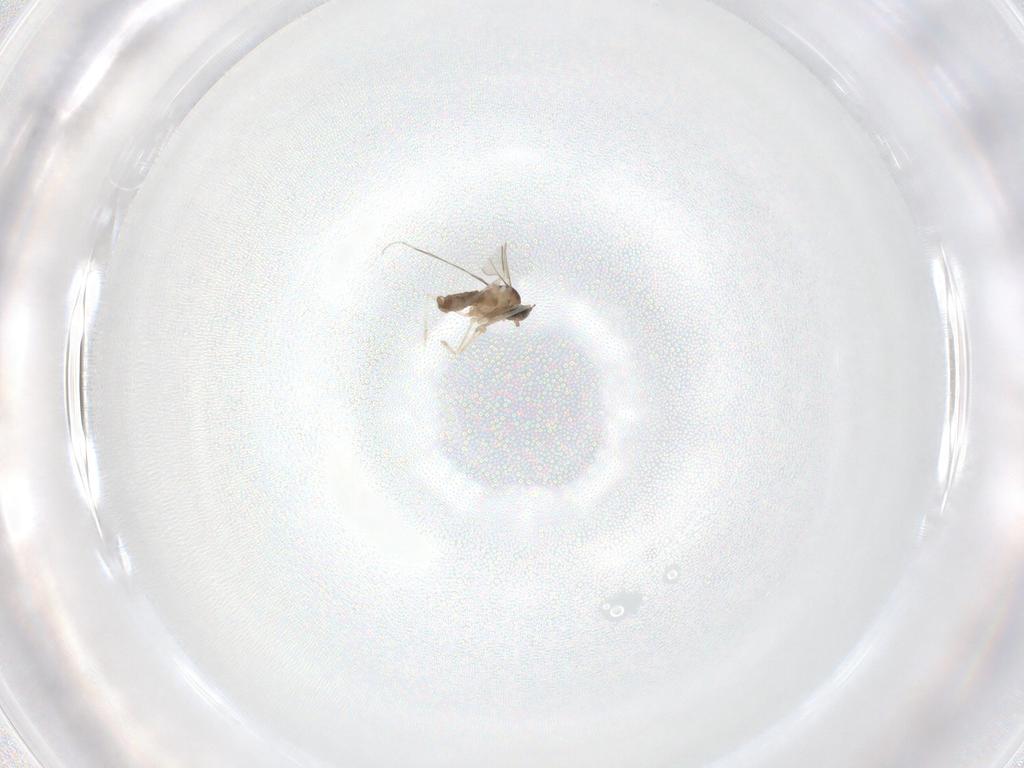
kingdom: Animalia
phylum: Arthropoda
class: Insecta
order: Diptera
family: Cecidomyiidae
